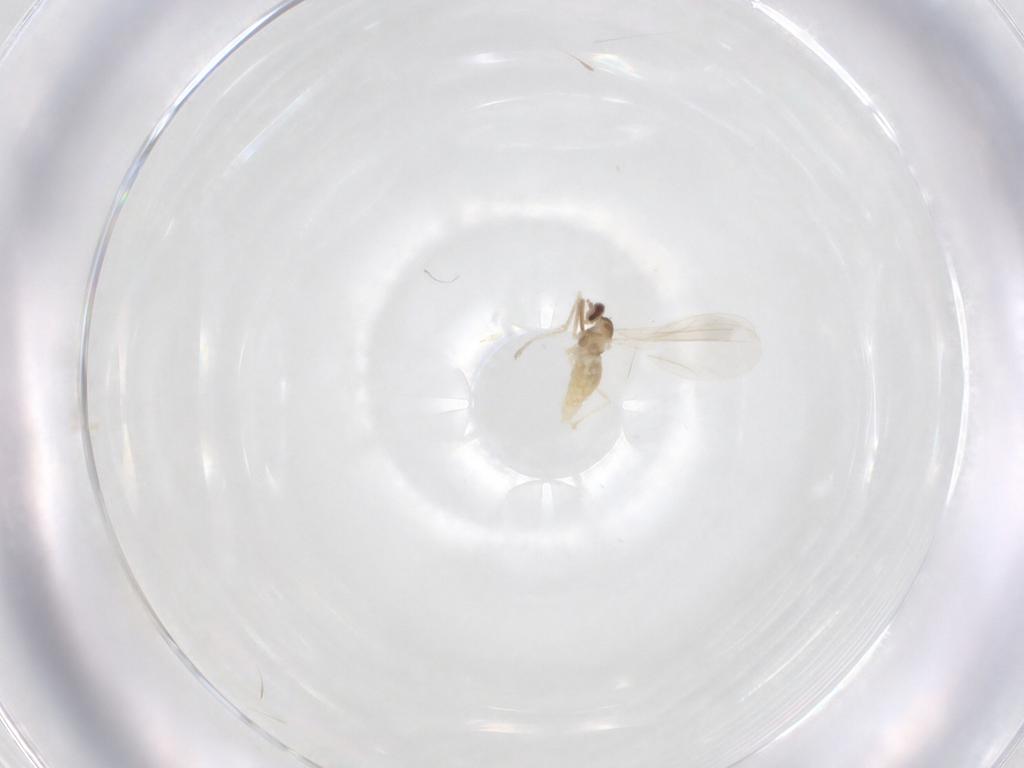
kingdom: Animalia
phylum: Arthropoda
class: Insecta
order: Diptera
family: Cecidomyiidae
